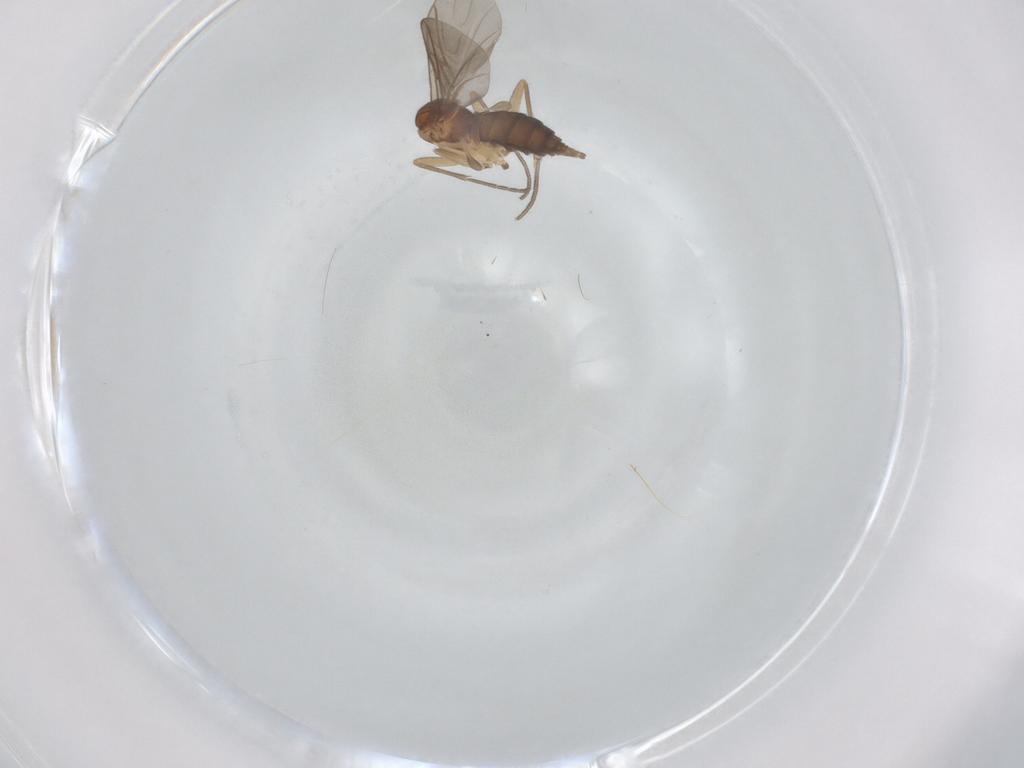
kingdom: Animalia
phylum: Arthropoda
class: Insecta
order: Diptera
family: Sciaridae
